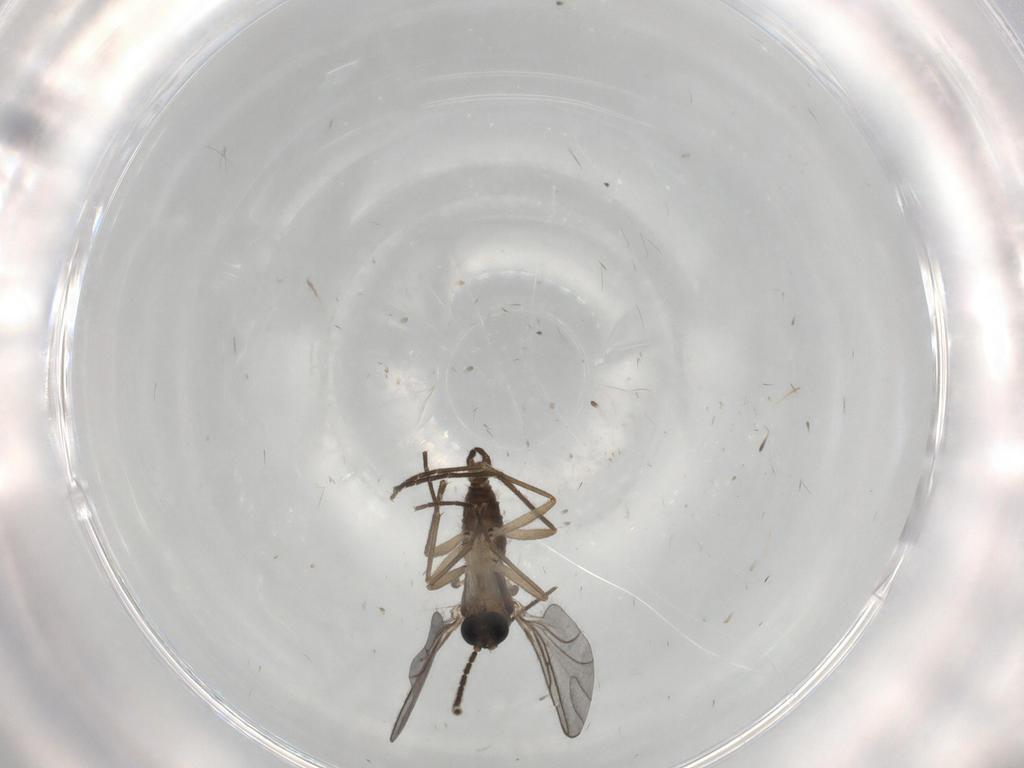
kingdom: Animalia
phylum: Arthropoda
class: Insecta
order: Diptera
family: Sciaridae
